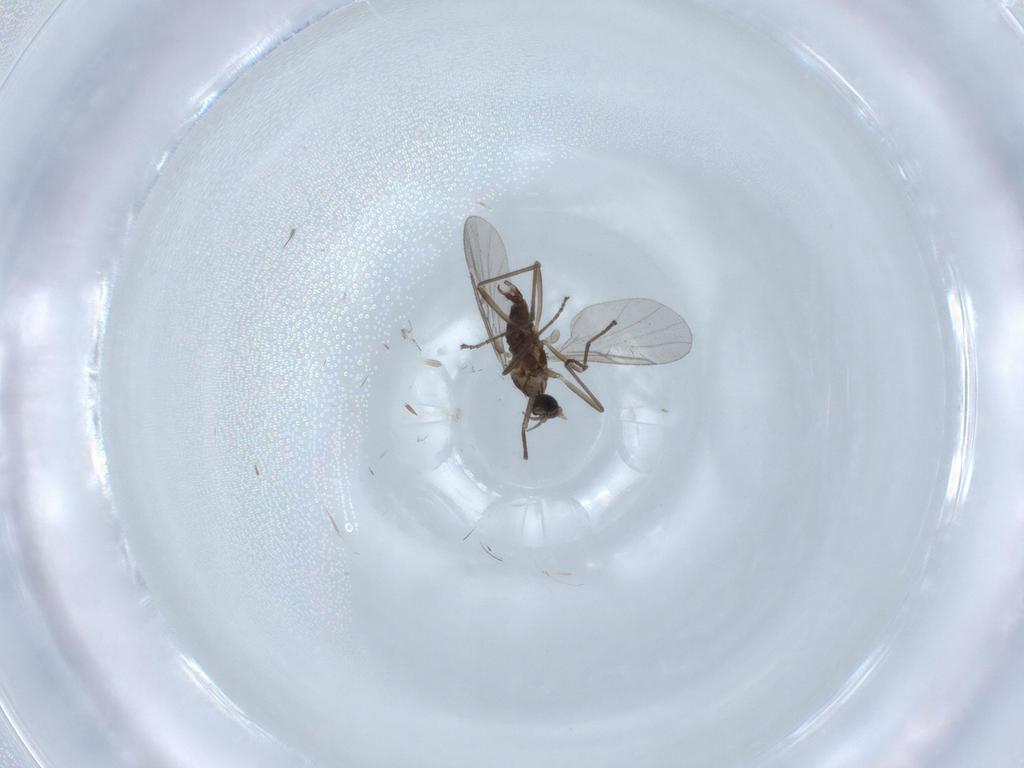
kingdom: Animalia
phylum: Arthropoda
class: Insecta
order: Diptera
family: Cecidomyiidae
